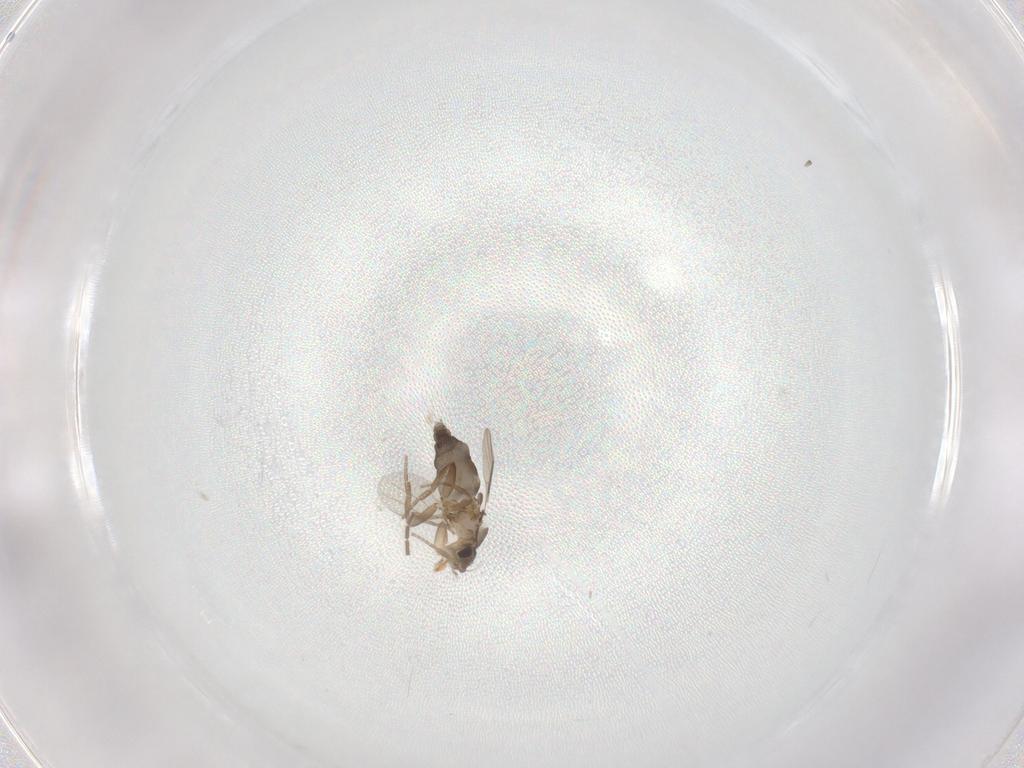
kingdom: Animalia
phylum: Arthropoda
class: Insecta
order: Diptera
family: Phoridae
